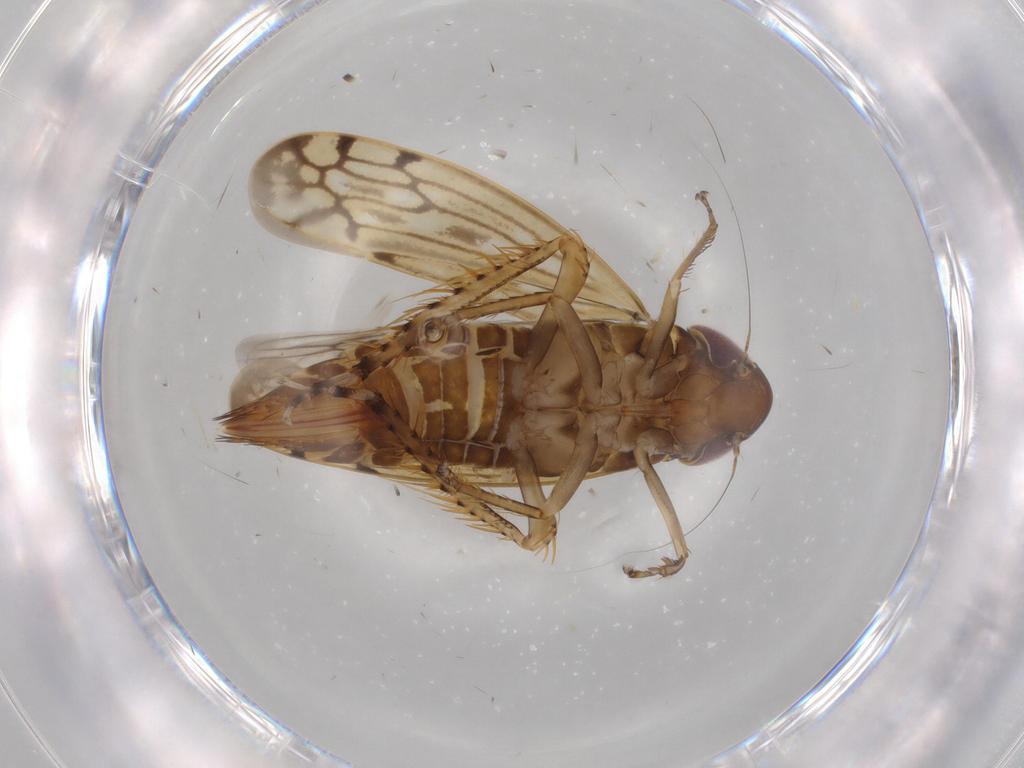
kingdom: Animalia
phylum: Arthropoda
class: Insecta
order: Hemiptera
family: Cicadellidae
